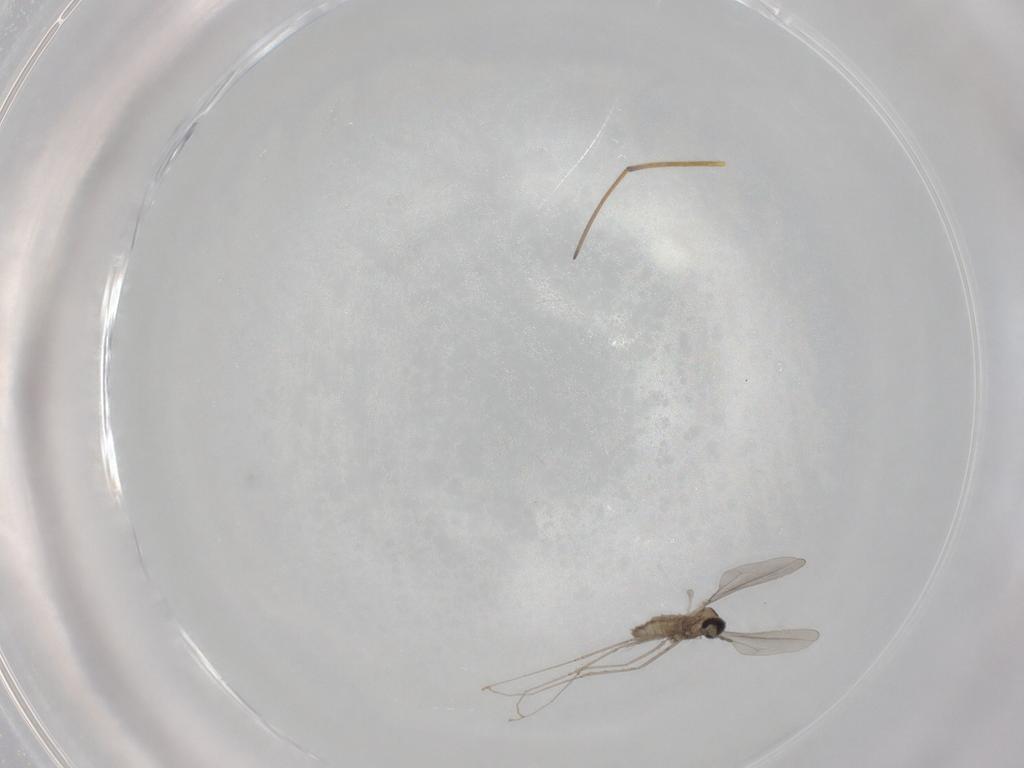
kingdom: Animalia
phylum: Arthropoda
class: Insecta
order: Diptera
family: Cecidomyiidae
